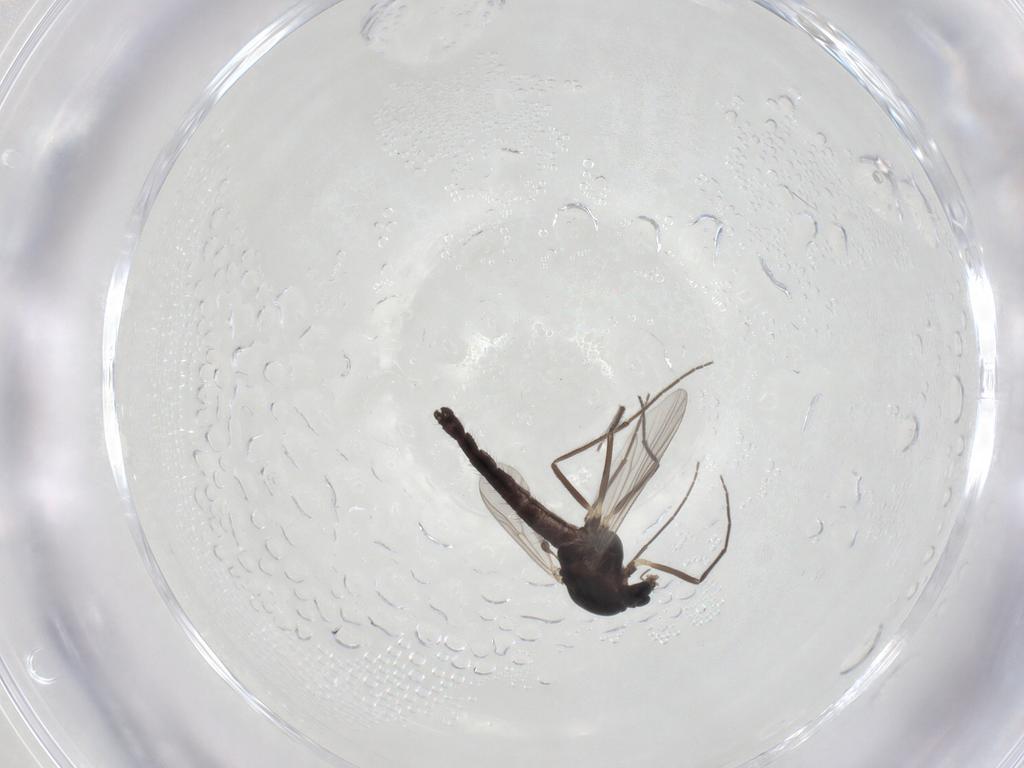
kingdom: Animalia
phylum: Arthropoda
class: Insecta
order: Diptera
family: Chironomidae
